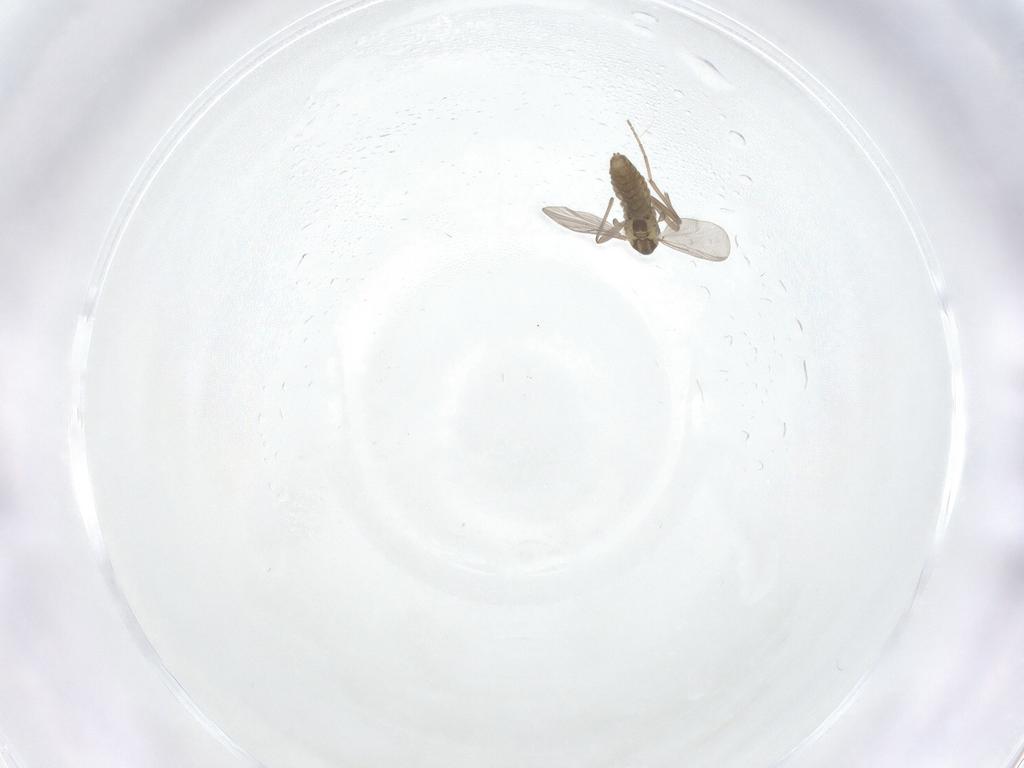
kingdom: Animalia
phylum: Arthropoda
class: Insecta
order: Diptera
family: Chironomidae
